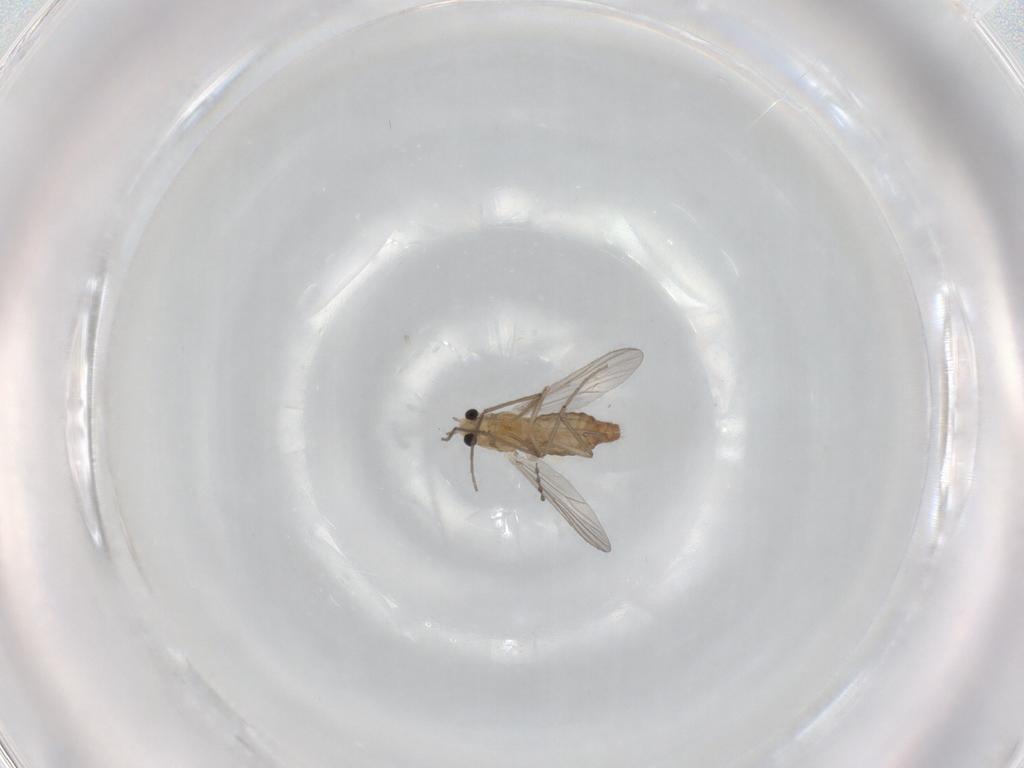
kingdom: Animalia
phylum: Arthropoda
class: Insecta
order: Diptera
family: Chironomidae
